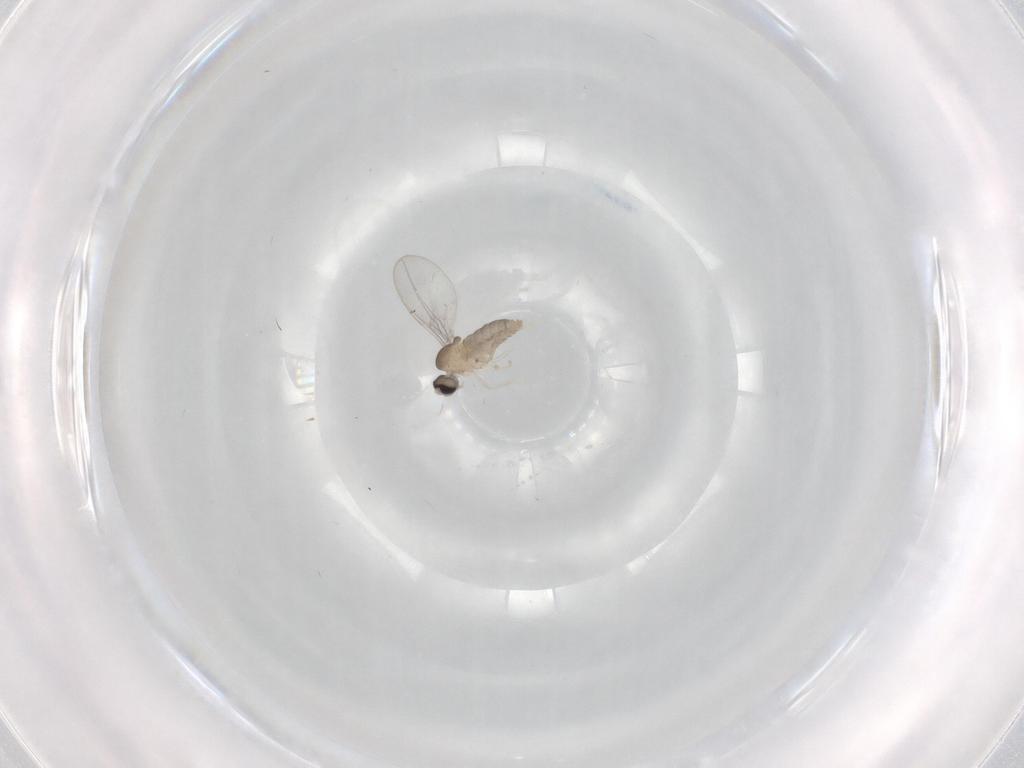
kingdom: Animalia
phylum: Arthropoda
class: Insecta
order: Diptera
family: Cecidomyiidae
